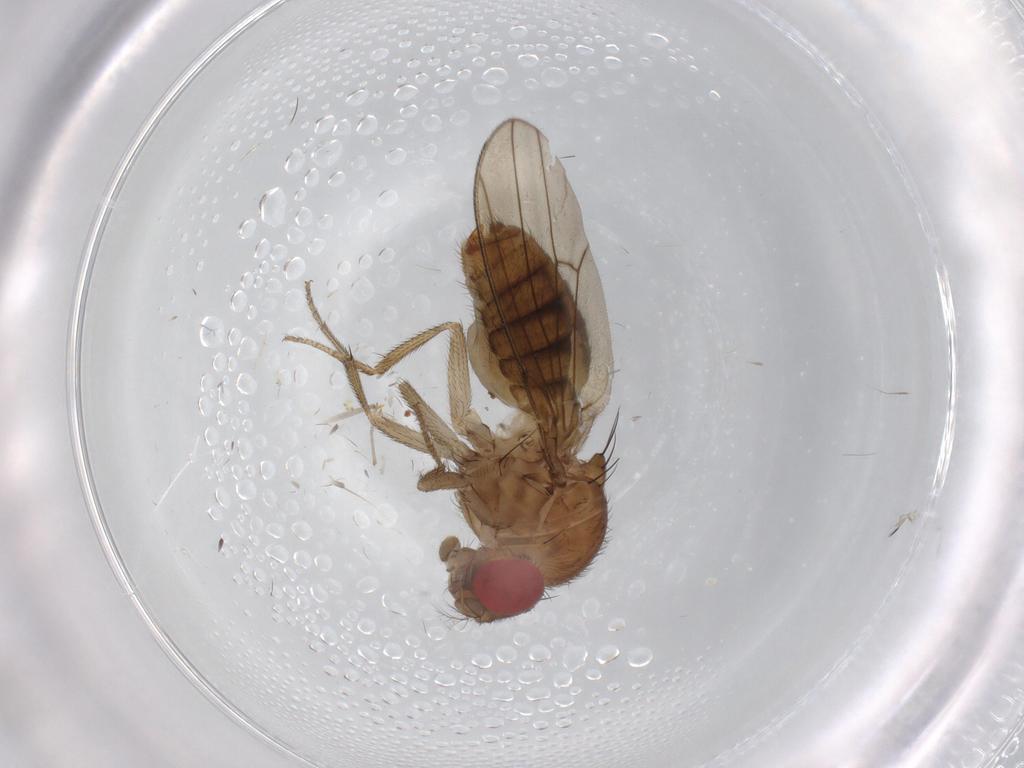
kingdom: Animalia
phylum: Arthropoda
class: Insecta
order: Diptera
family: Drosophilidae
